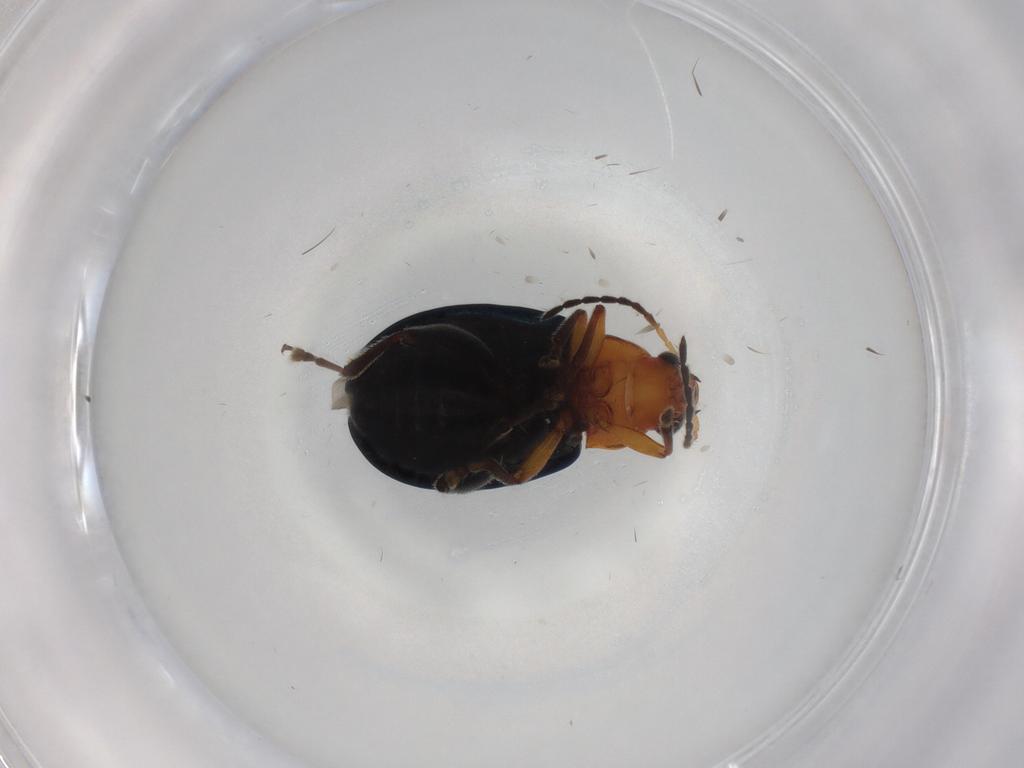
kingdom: Animalia
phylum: Arthropoda
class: Insecta
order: Coleoptera
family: Chrysomelidae
